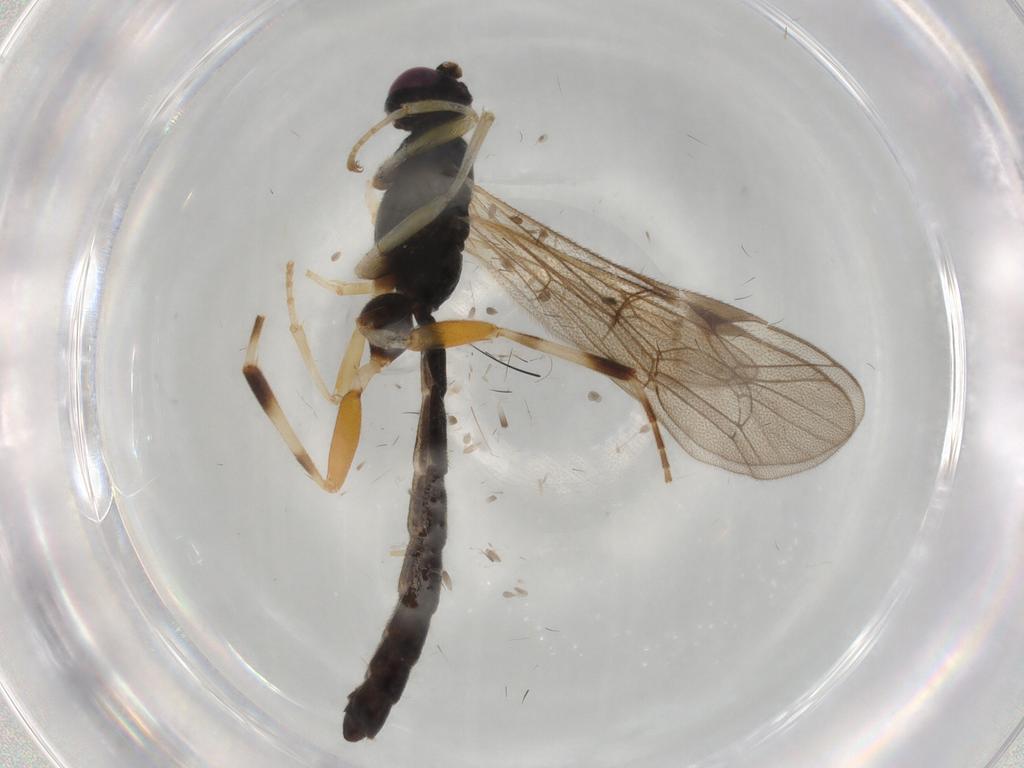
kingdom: Animalia
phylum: Arthropoda
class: Insecta
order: Hymenoptera
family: Ichneumonidae
